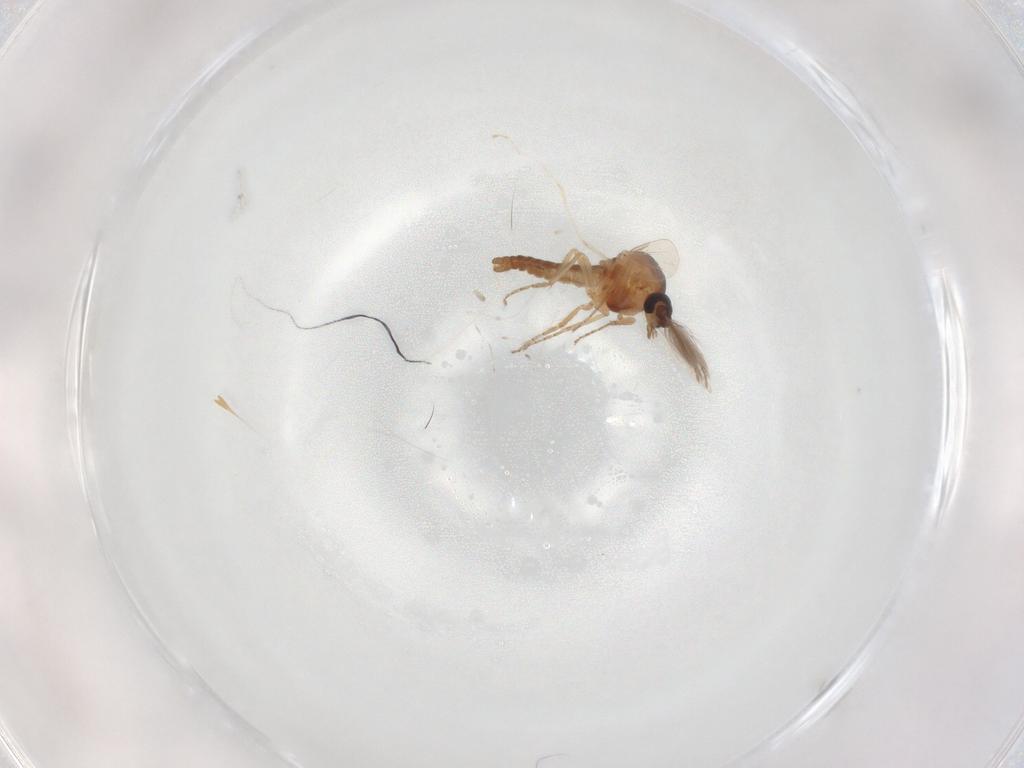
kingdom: Animalia
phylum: Arthropoda
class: Insecta
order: Diptera
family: Ceratopogonidae
